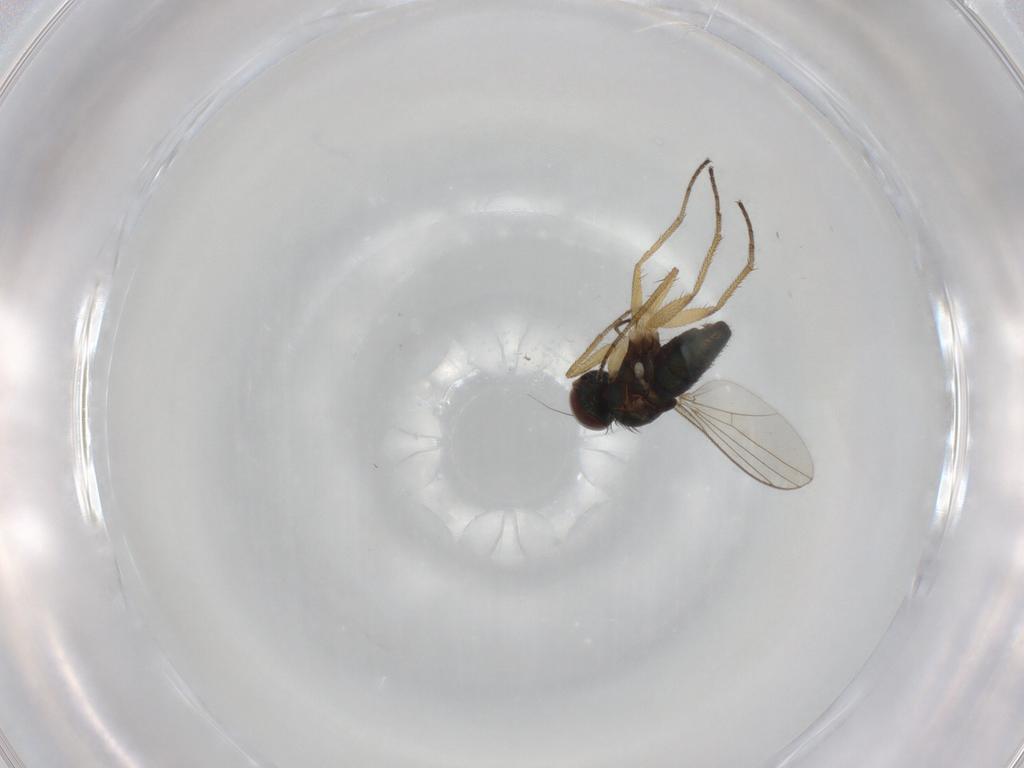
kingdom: Animalia
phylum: Arthropoda
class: Insecta
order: Diptera
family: Dolichopodidae
